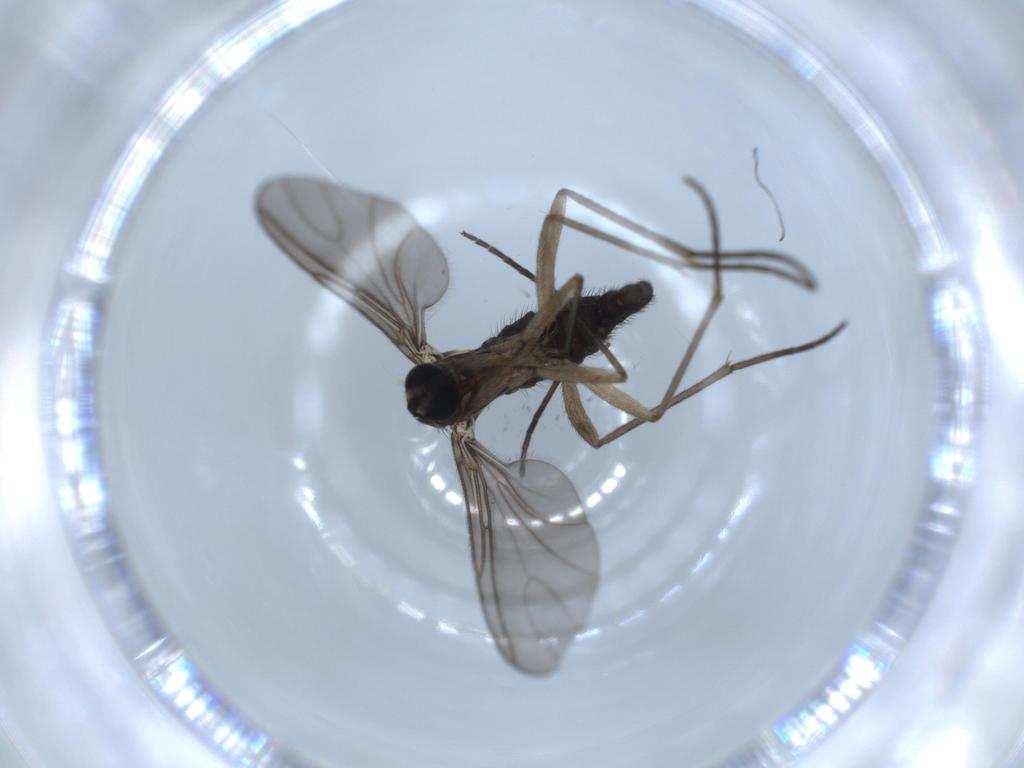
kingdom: Animalia
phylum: Arthropoda
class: Insecta
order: Diptera
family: Sciaridae
